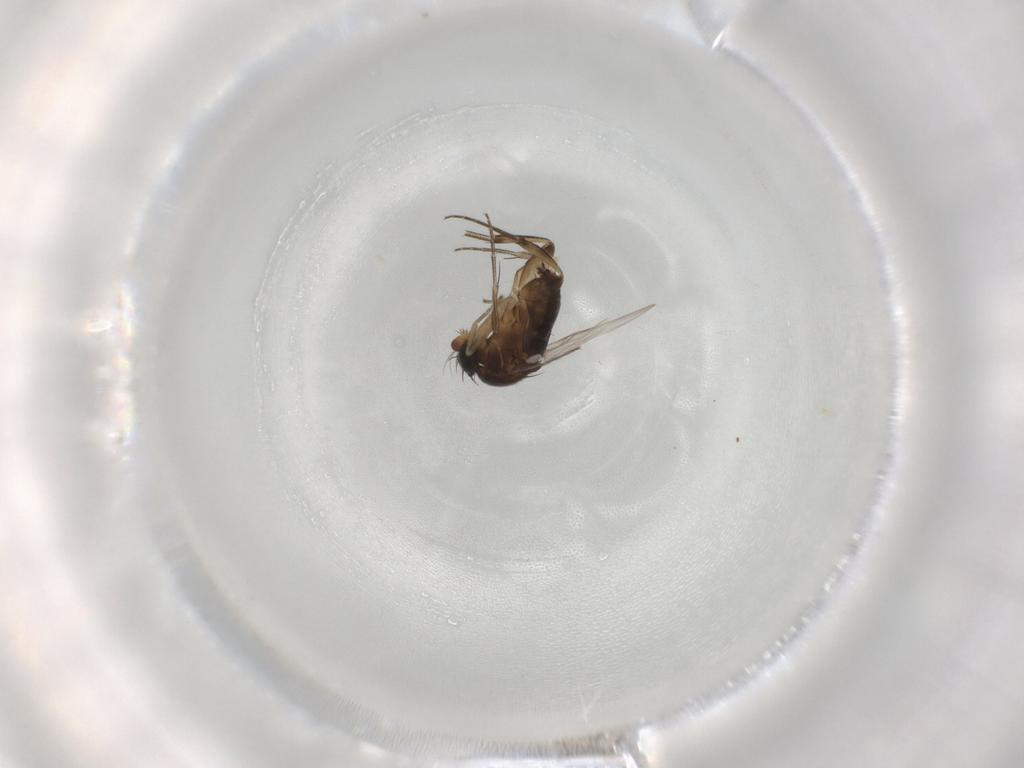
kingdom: Animalia
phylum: Arthropoda
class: Insecta
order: Diptera
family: Phoridae
